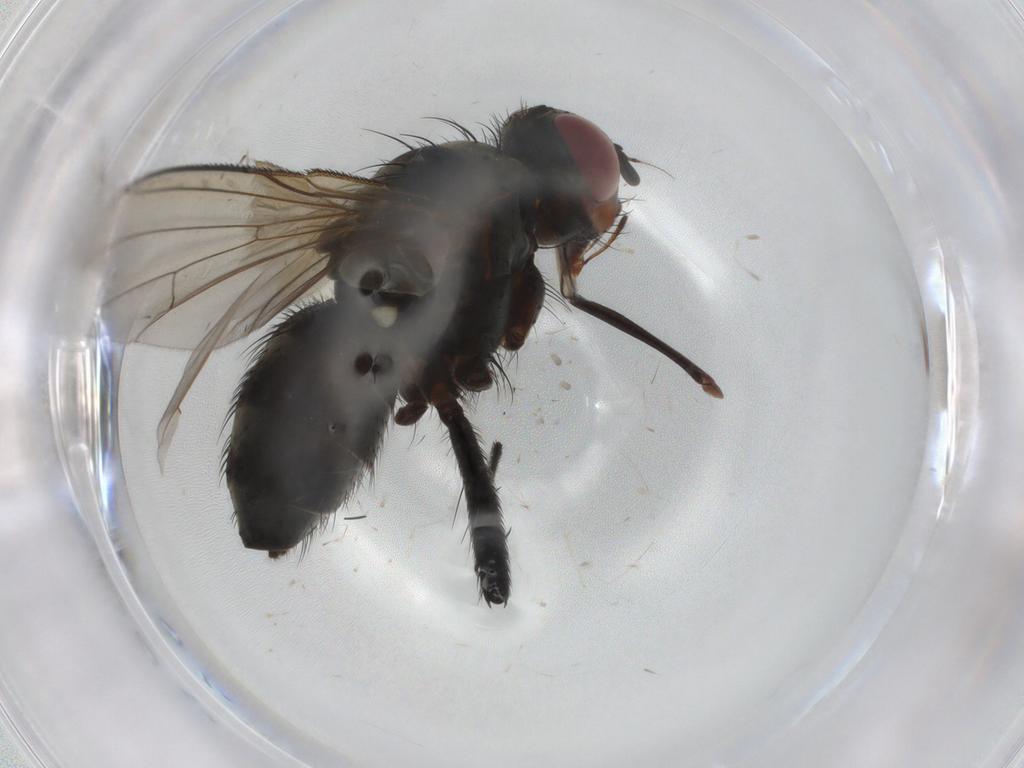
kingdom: Animalia
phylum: Arthropoda
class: Insecta
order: Diptera
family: Tachinidae
